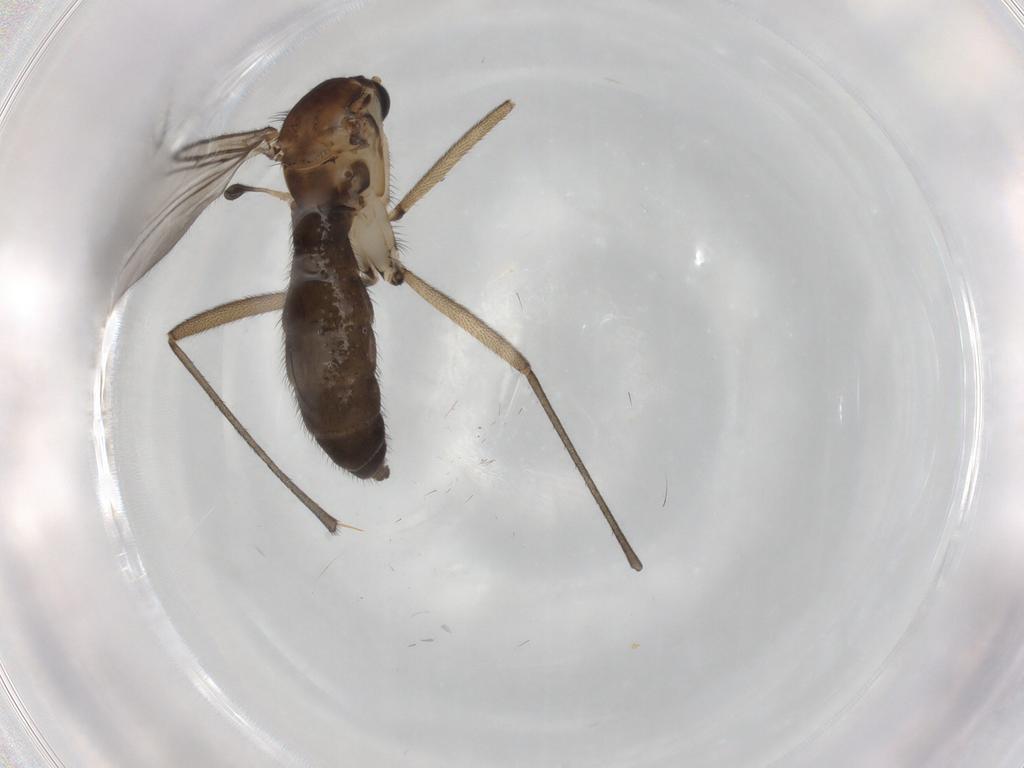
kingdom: Animalia
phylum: Arthropoda
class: Insecta
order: Diptera
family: Sciaridae
